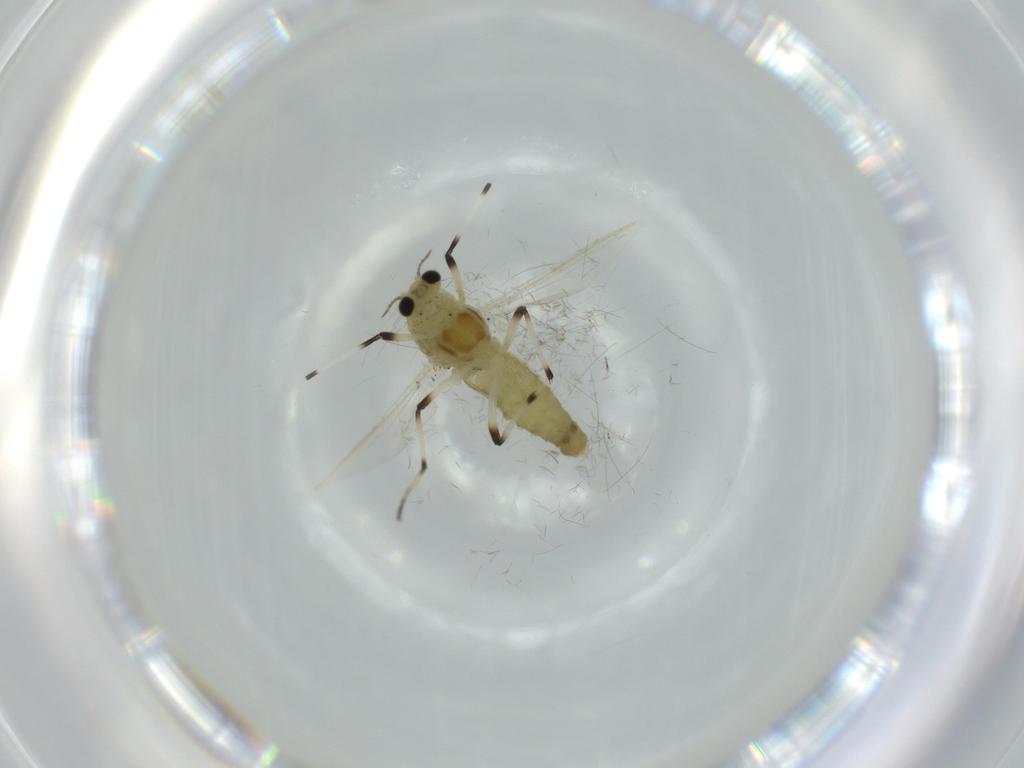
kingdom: Animalia
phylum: Arthropoda
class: Insecta
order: Diptera
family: Chironomidae
